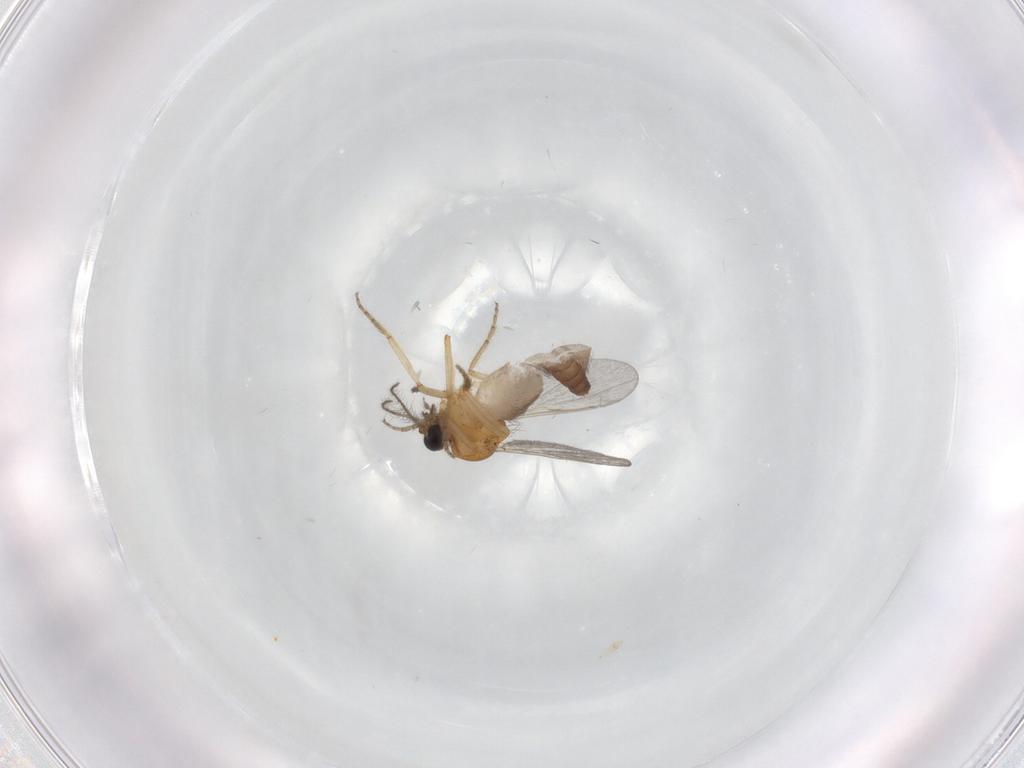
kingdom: Animalia
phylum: Arthropoda
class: Insecta
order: Diptera
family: Ceratopogonidae
